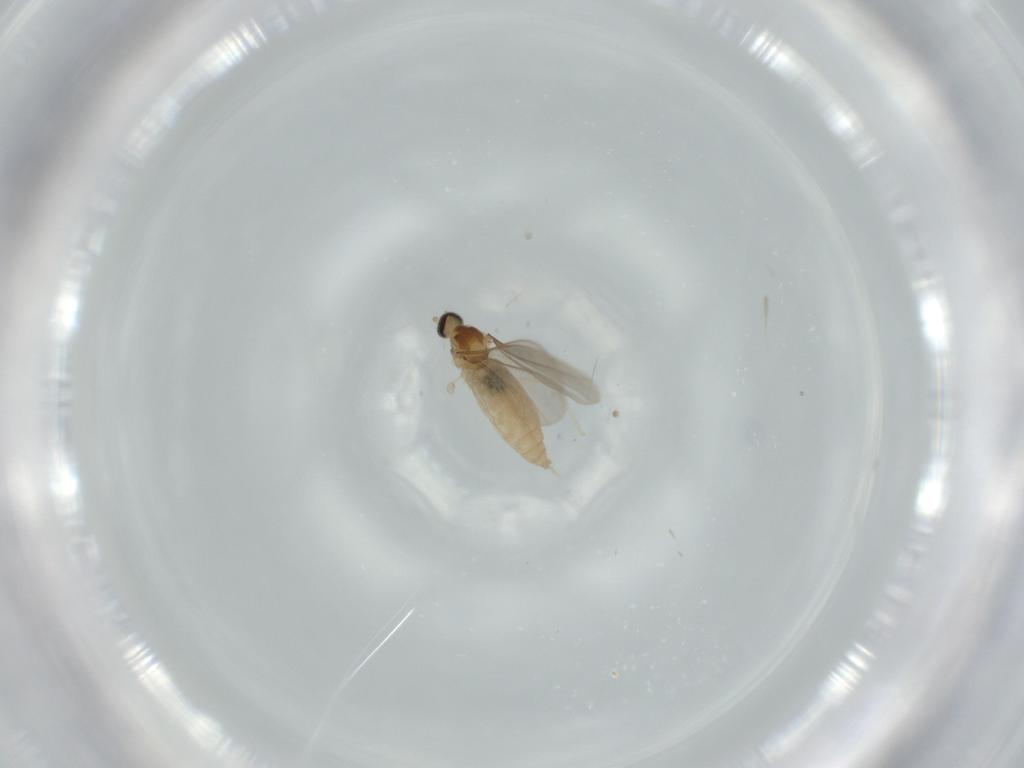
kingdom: Animalia
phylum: Arthropoda
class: Insecta
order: Diptera
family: Cecidomyiidae
